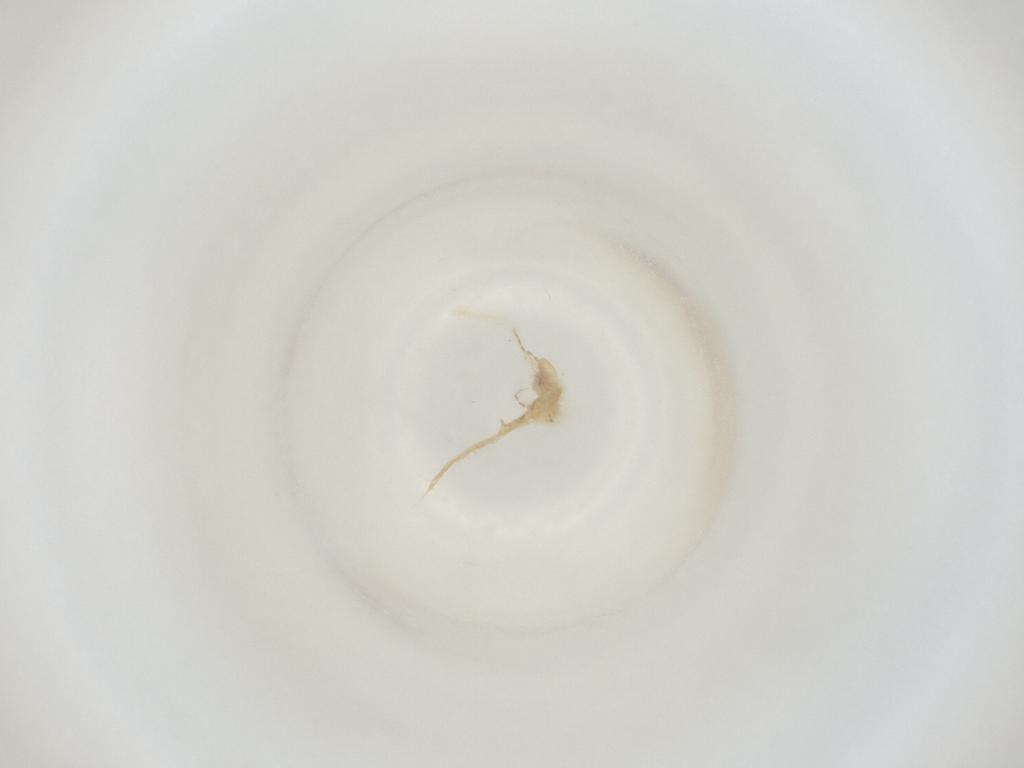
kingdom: Animalia
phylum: Arthropoda
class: Insecta
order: Diptera
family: Cecidomyiidae
